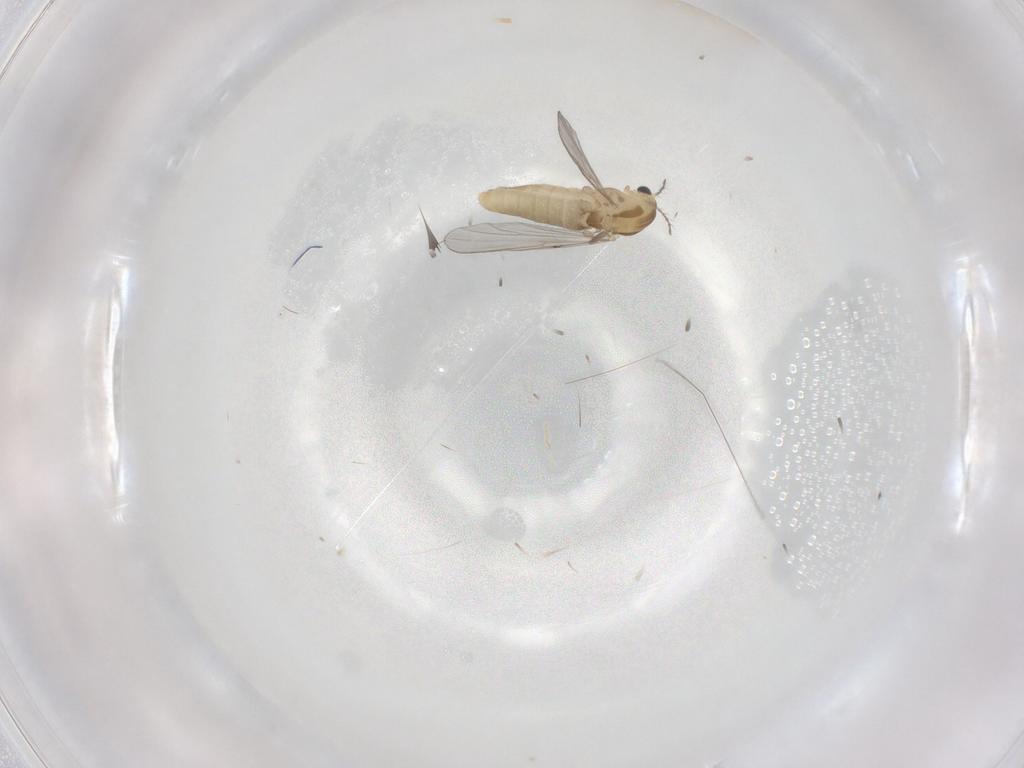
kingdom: Animalia
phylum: Arthropoda
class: Insecta
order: Diptera
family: Chironomidae
